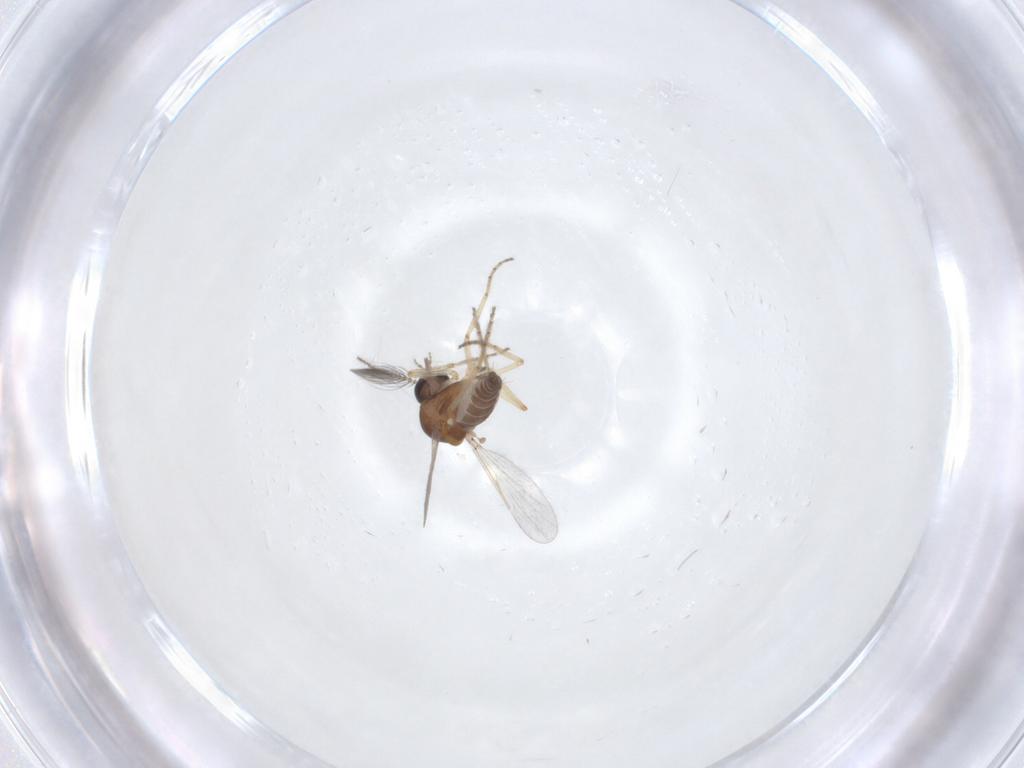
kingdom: Animalia
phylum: Arthropoda
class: Insecta
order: Diptera
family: Ceratopogonidae
